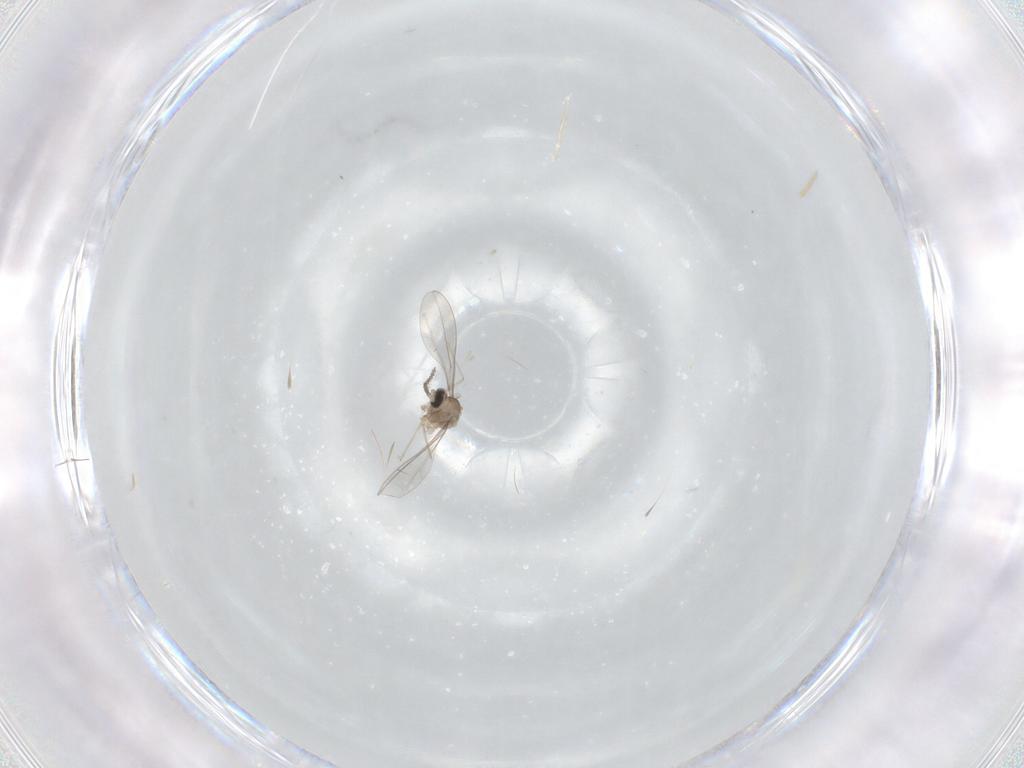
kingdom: Animalia
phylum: Arthropoda
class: Insecta
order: Diptera
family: Cecidomyiidae
